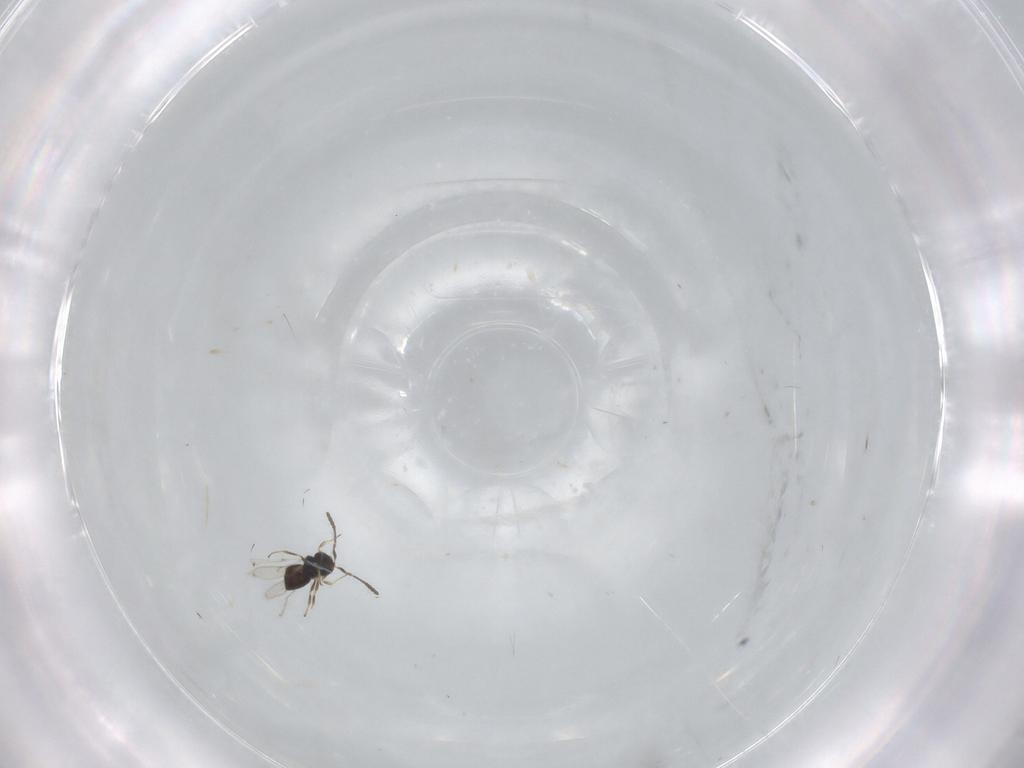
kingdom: Animalia
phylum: Arthropoda
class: Insecta
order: Hymenoptera
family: Scelionidae
